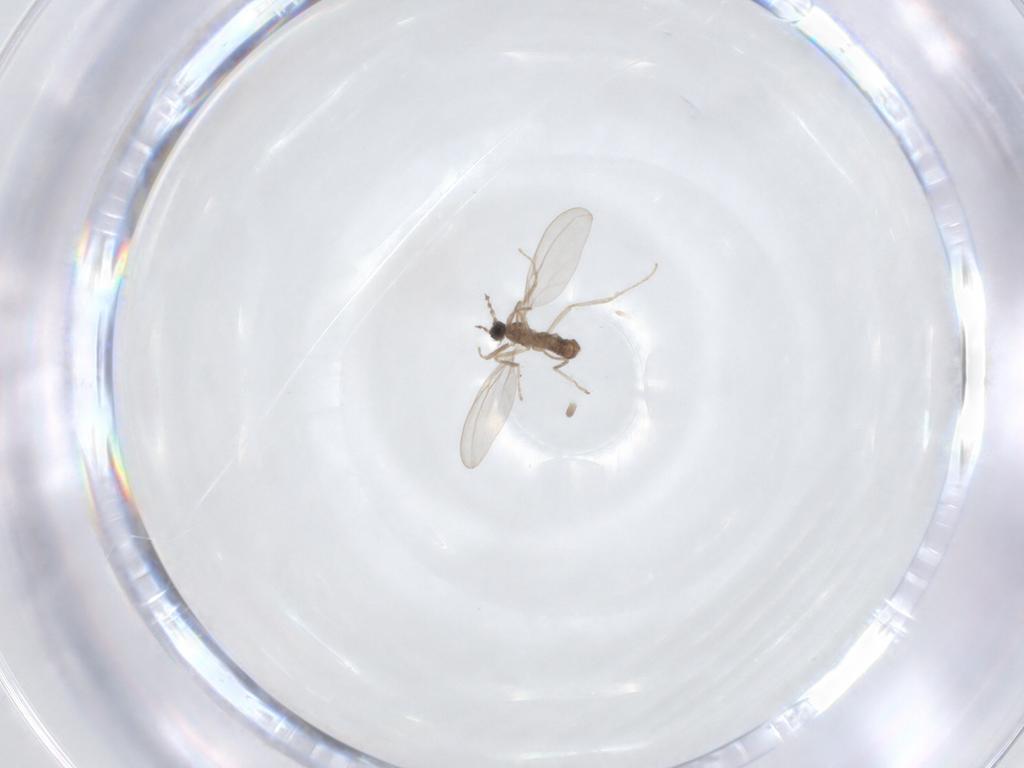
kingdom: Animalia
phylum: Arthropoda
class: Insecta
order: Diptera
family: Cecidomyiidae
